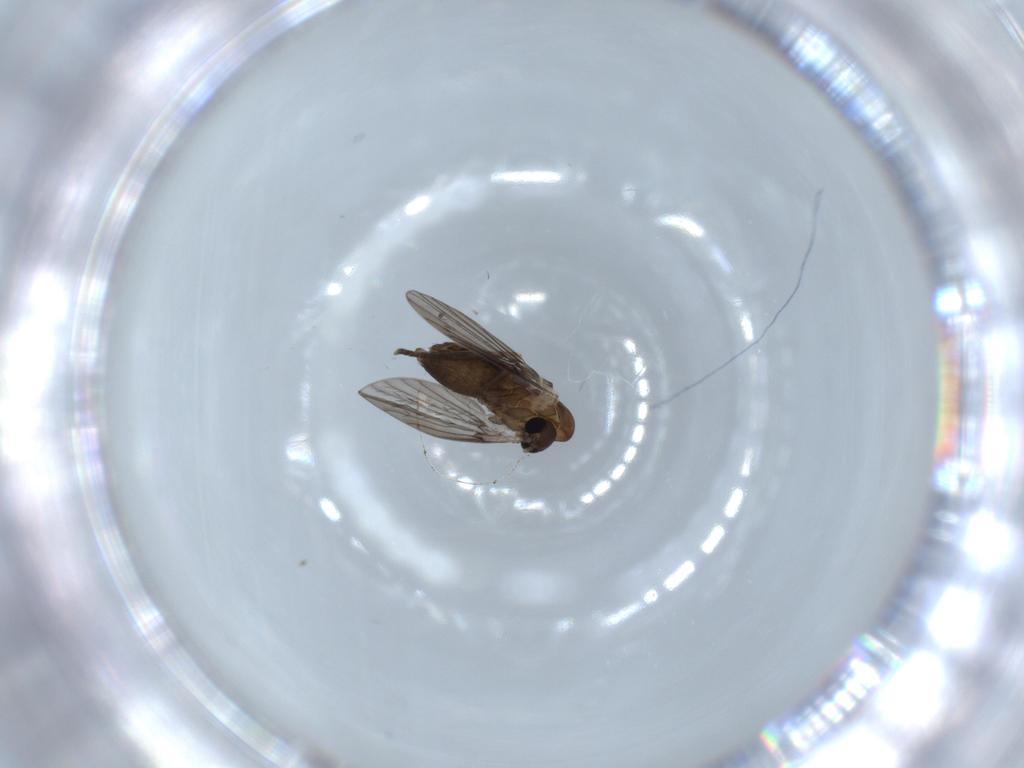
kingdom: Animalia
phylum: Arthropoda
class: Insecta
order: Diptera
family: Psychodidae
